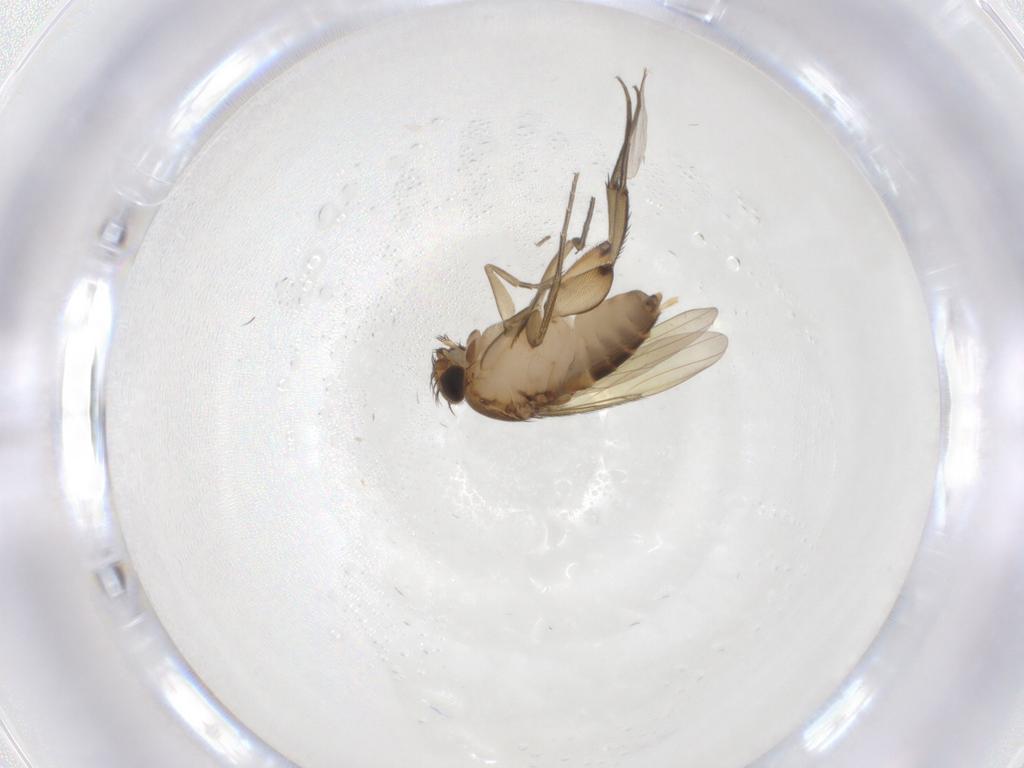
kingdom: Animalia
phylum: Arthropoda
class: Insecta
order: Diptera
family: Phoridae
